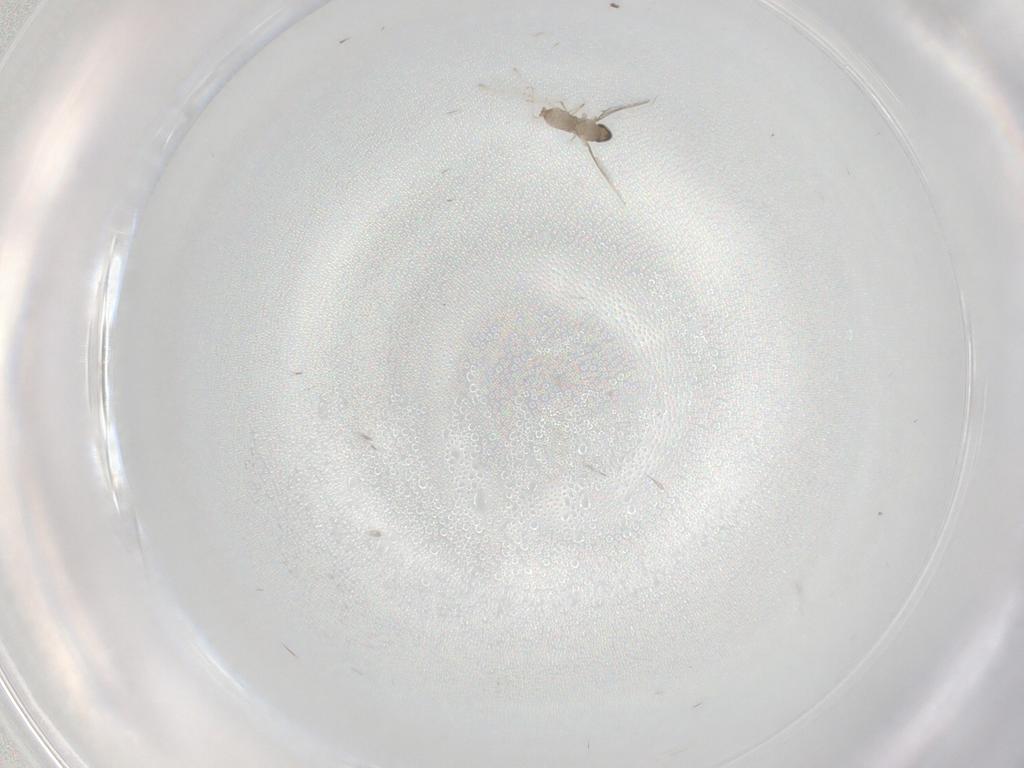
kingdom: Animalia
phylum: Arthropoda
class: Insecta
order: Diptera
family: Cecidomyiidae
